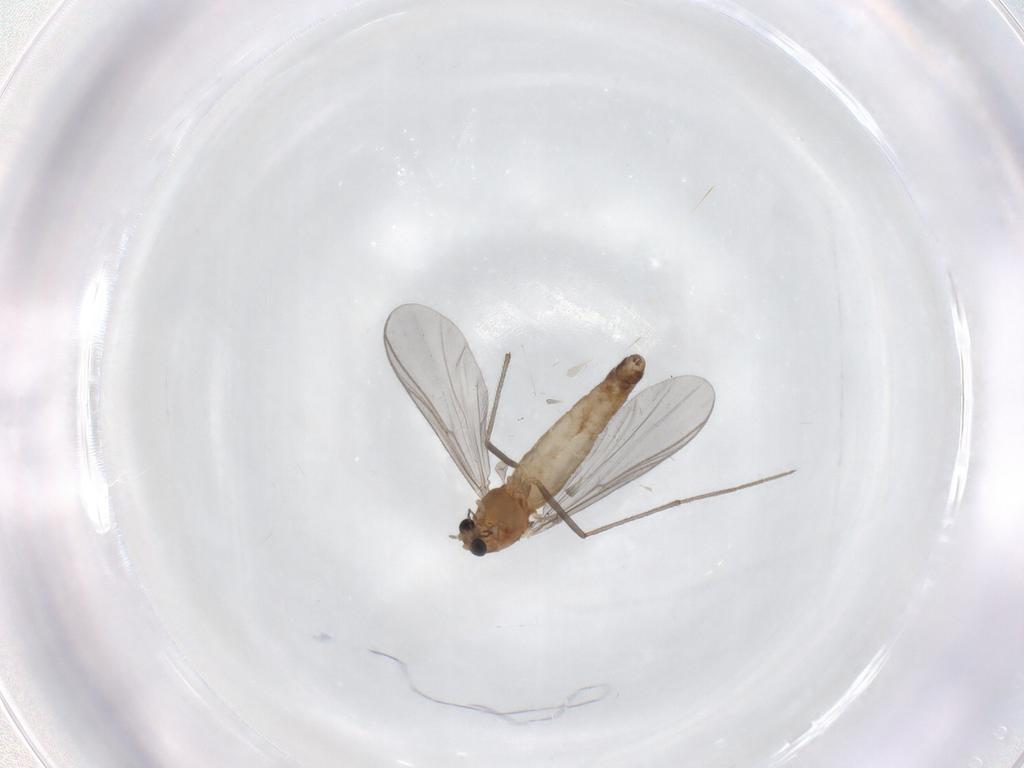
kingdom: Animalia
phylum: Arthropoda
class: Insecta
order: Diptera
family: Chironomidae
